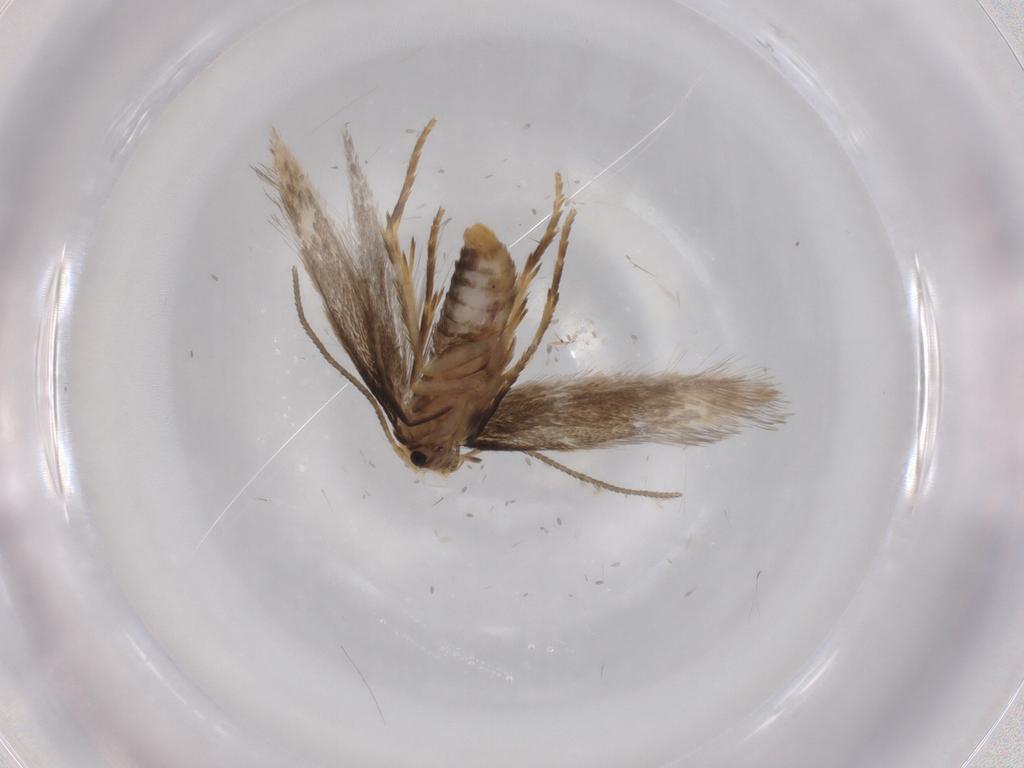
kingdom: Animalia
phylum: Arthropoda
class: Insecta
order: Lepidoptera
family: Nepticulidae
